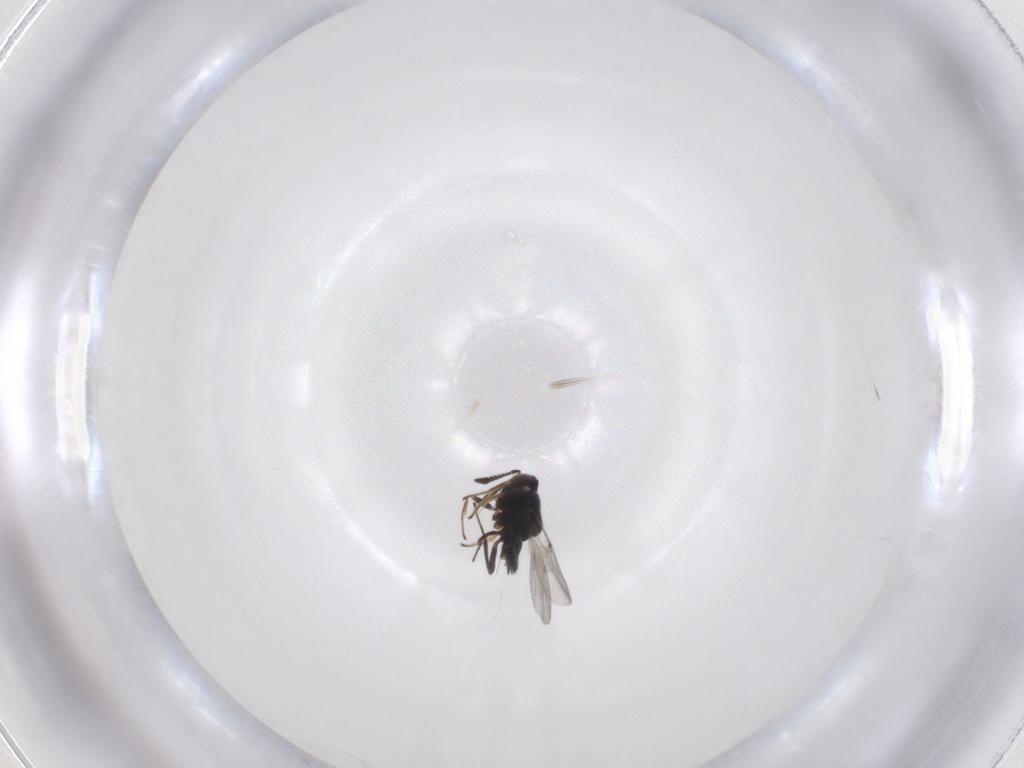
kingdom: Animalia
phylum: Arthropoda
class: Insecta
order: Hymenoptera
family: Encyrtidae
